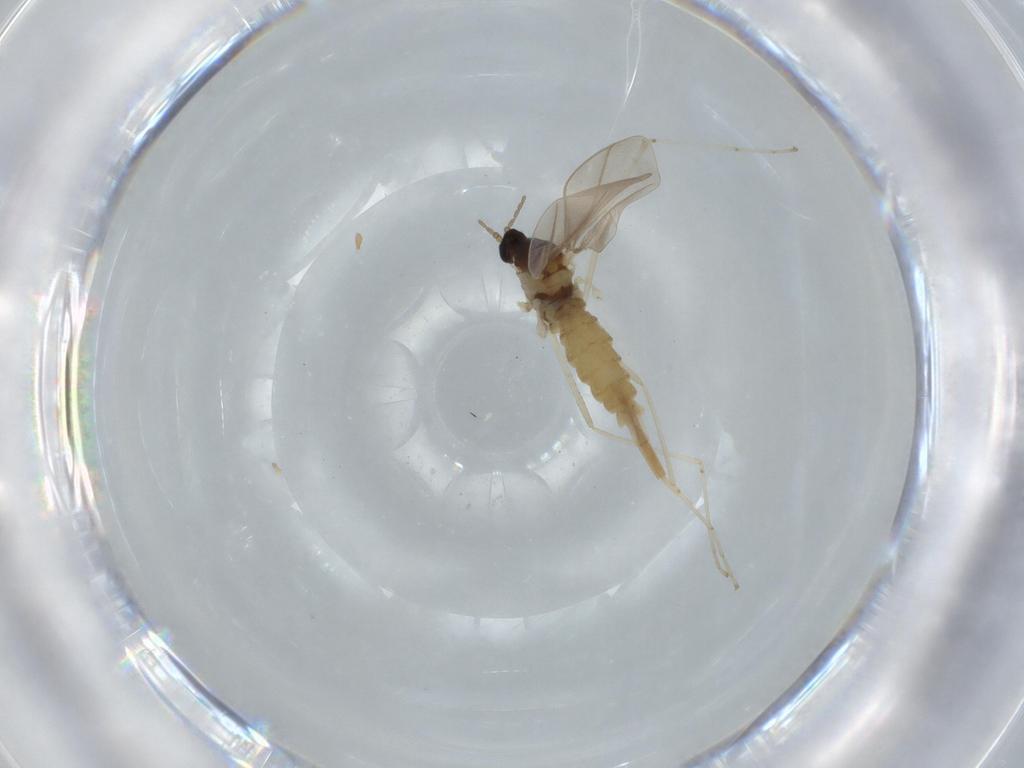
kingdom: Animalia
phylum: Arthropoda
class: Insecta
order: Diptera
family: Cecidomyiidae
